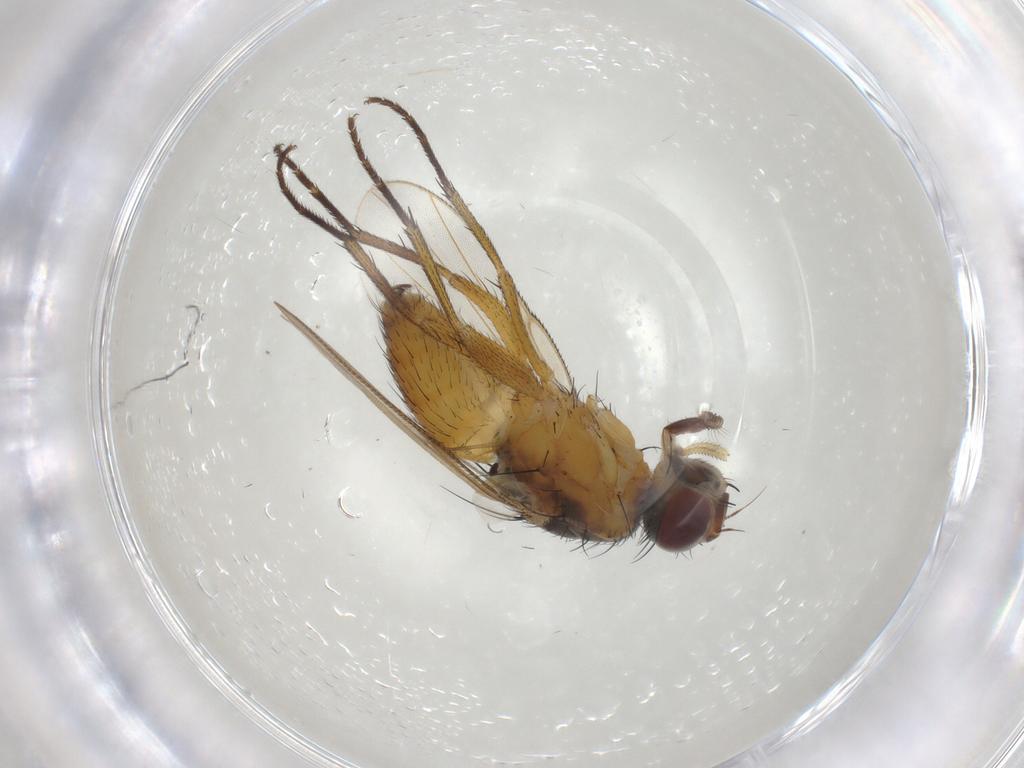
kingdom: Animalia
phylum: Arthropoda
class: Insecta
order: Diptera
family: Muscidae
